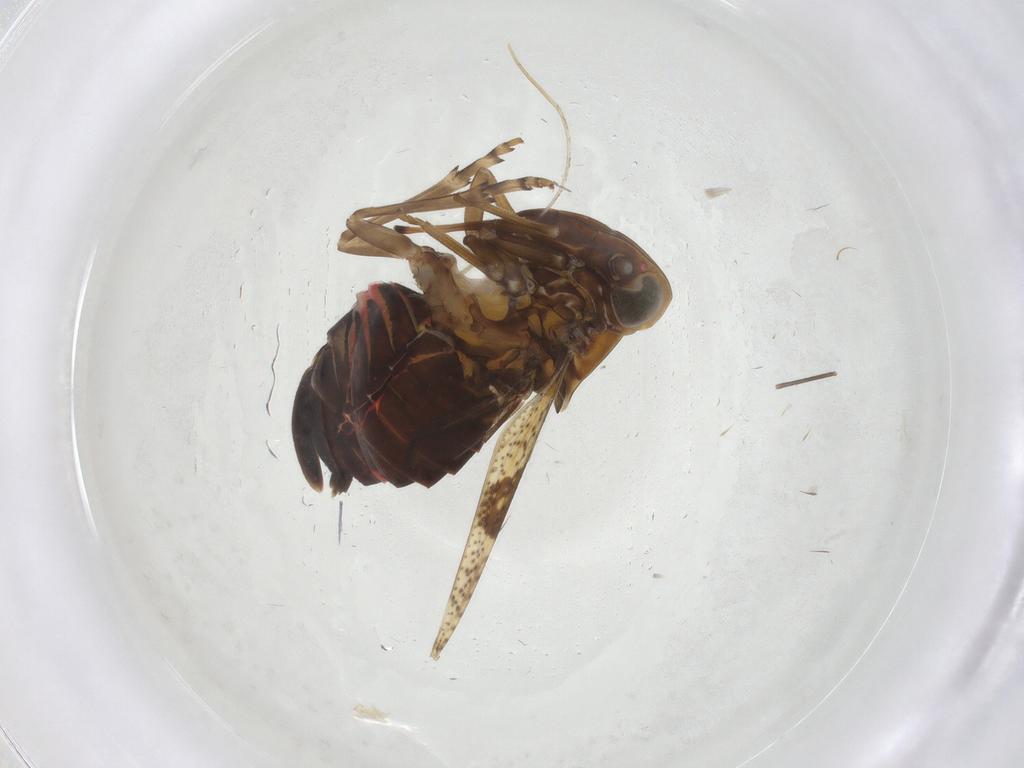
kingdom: Animalia
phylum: Arthropoda
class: Insecta
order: Hemiptera
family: Cixiidae
